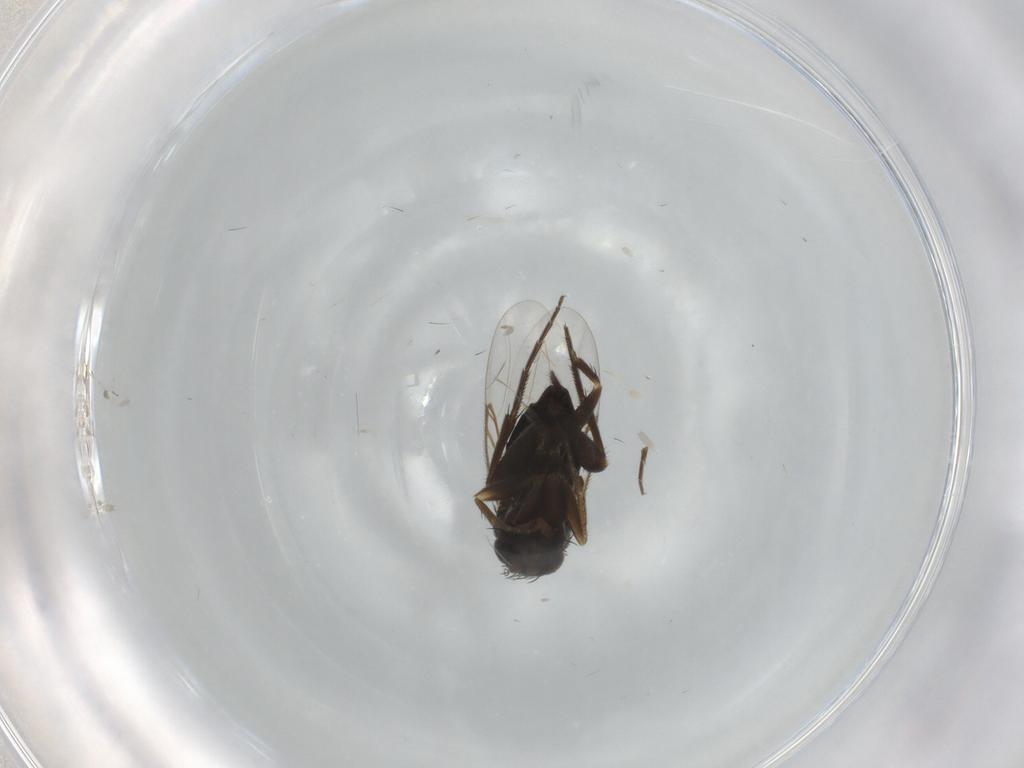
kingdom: Animalia
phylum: Arthropoda
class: Insecta
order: Diptera
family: Phoridae
